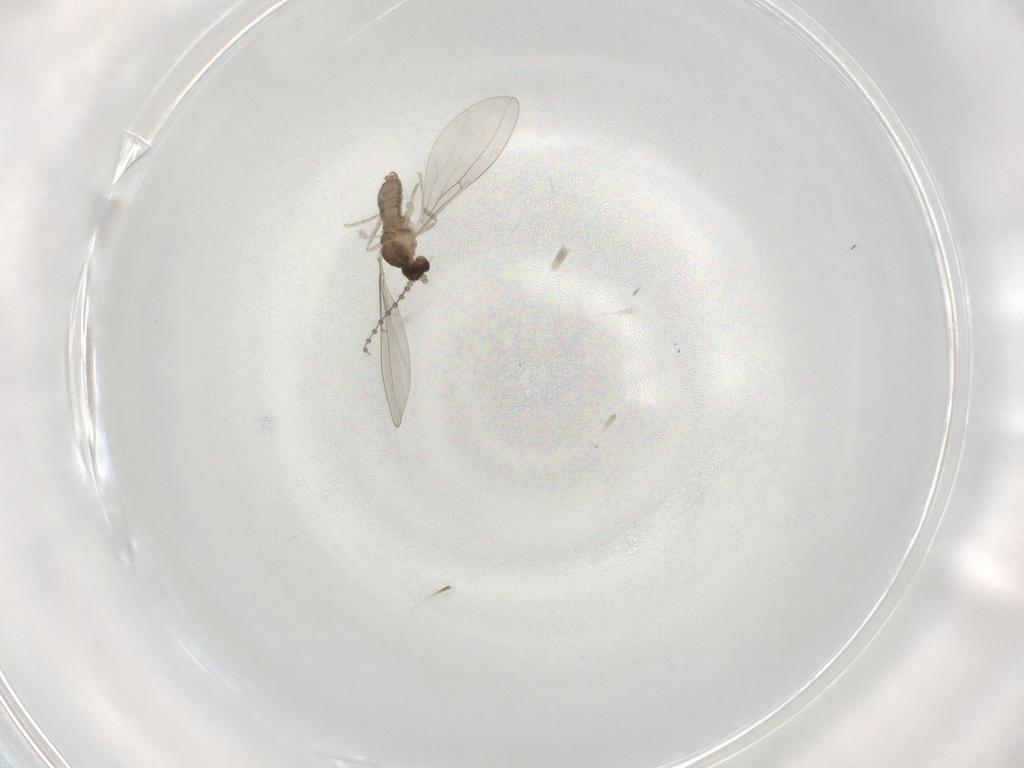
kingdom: Animalia
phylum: Arthropoda
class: Insecta
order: Diptera
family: Cecidomyiidae
